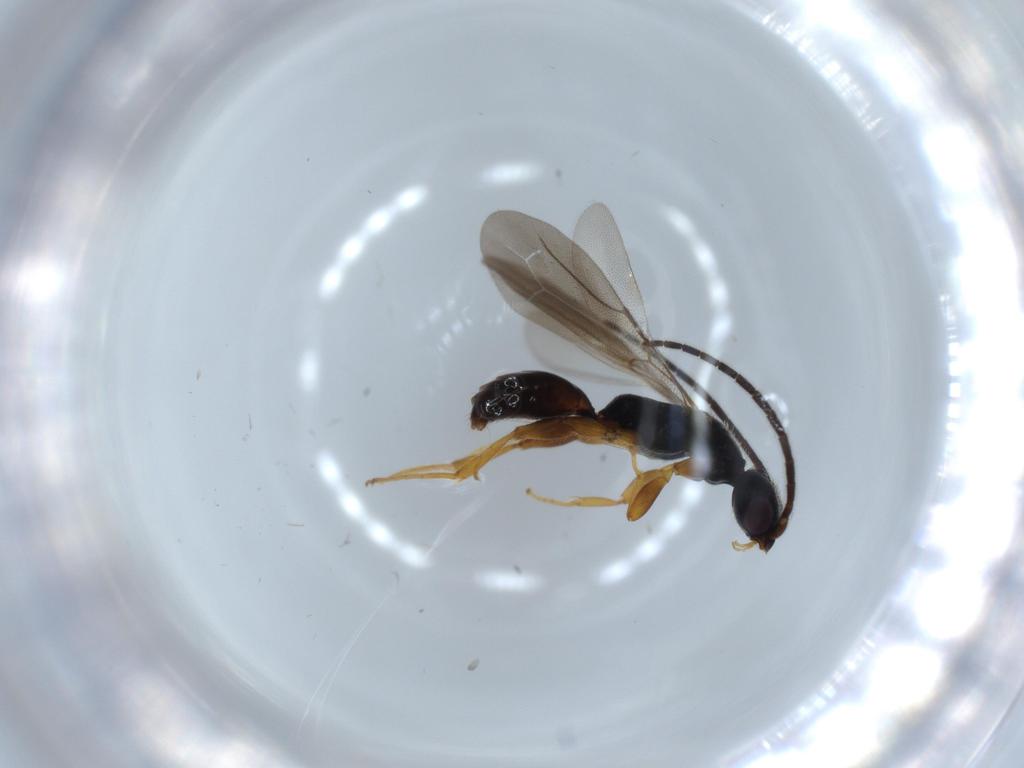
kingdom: Animalia
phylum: Arthropoda
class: Insecta
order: Hymenoptera
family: Bethylidae
